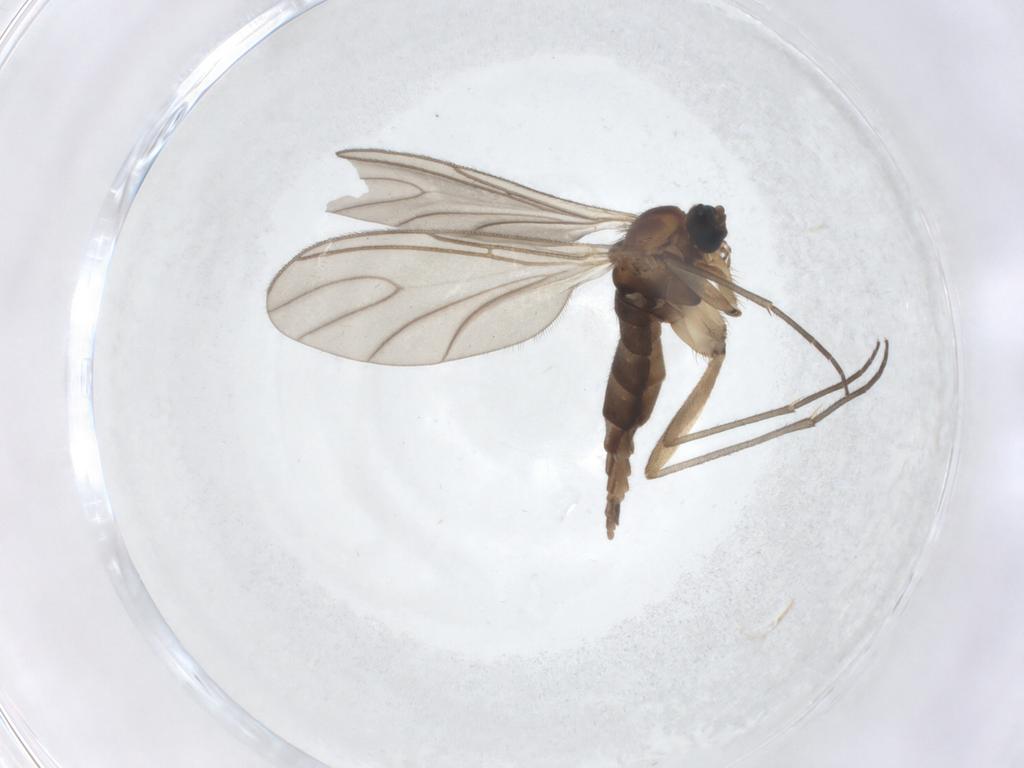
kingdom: Animalia
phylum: Arthropoda
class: Insecta
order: Diptera
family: Sciaridae
